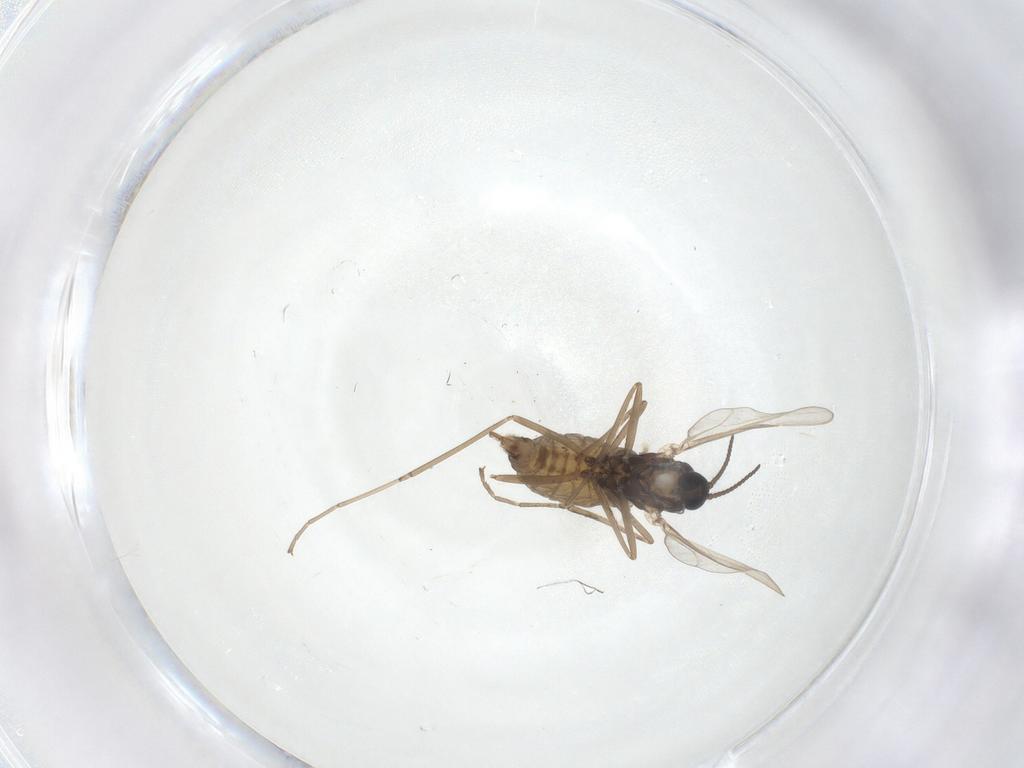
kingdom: Animalia
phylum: Arthropoda
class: Insecta
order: Diptera
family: Cecidomyiidae
